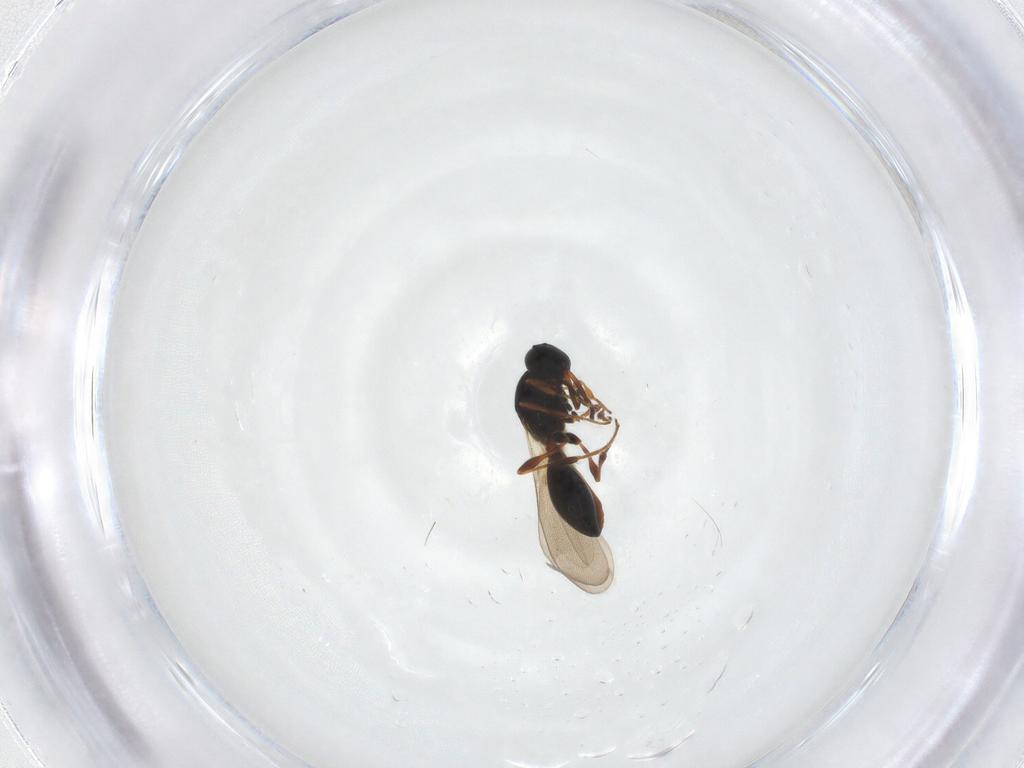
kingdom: Animalia
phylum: Arthropoda
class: Insecta
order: Hymenoptera
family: Platygastridae
